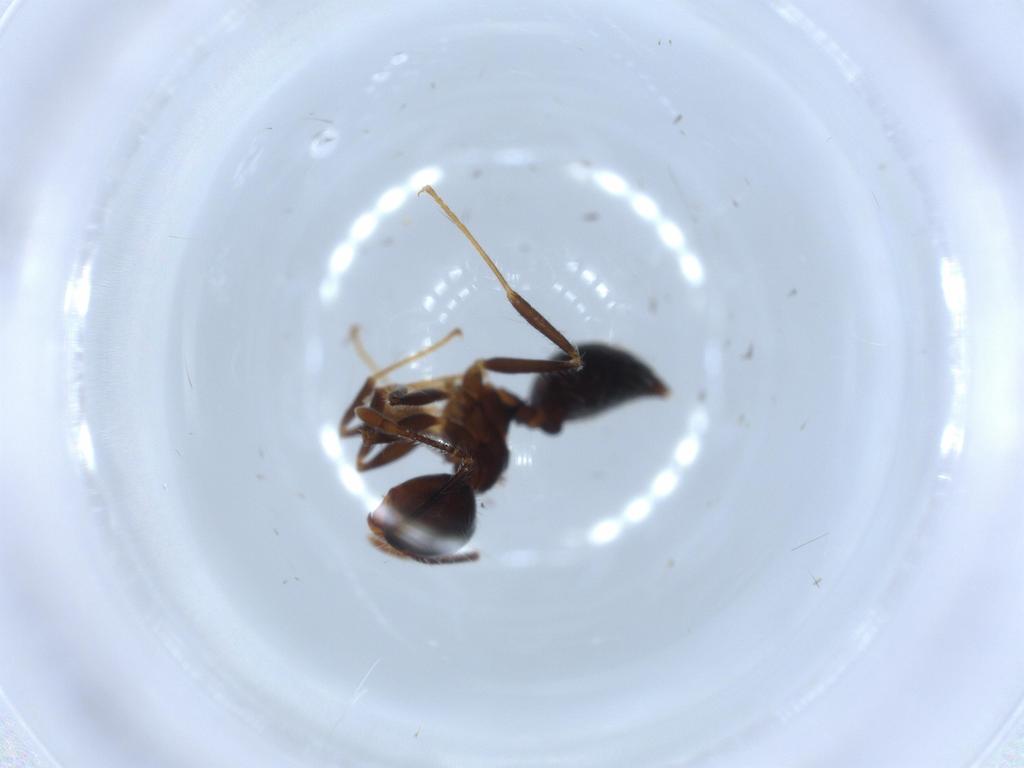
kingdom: Animalia
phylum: Arthropoda
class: Insecta
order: Hymenoptera
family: Formicidae
